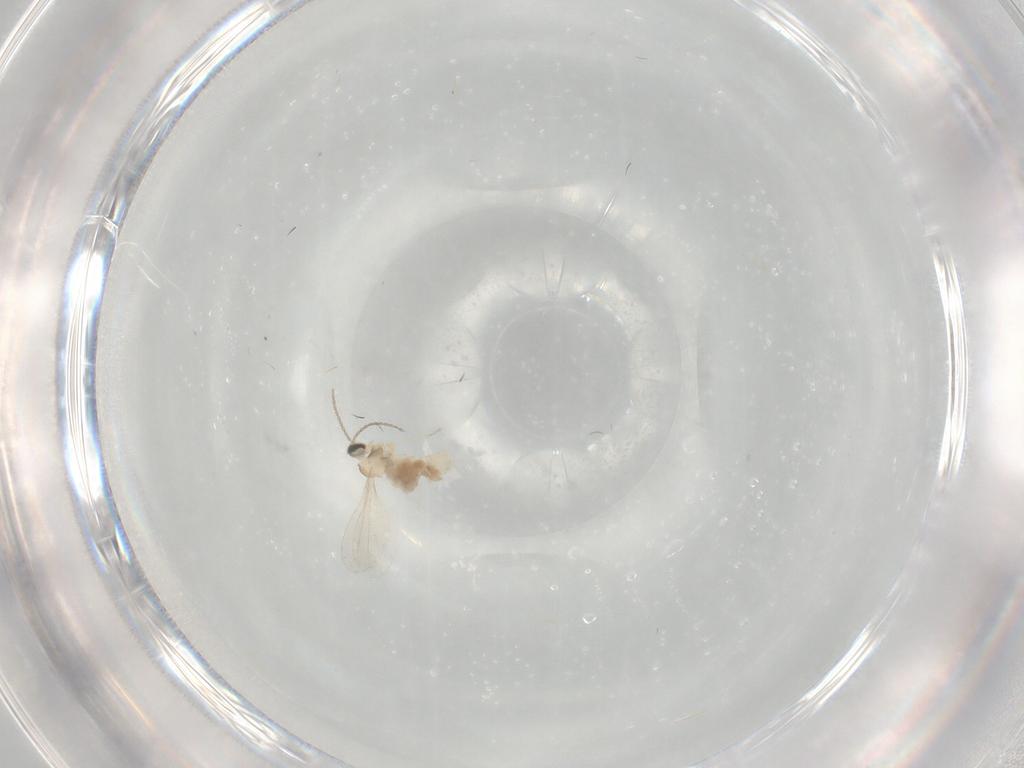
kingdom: Animalia
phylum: Arthropoda
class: Insecta
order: Diptera
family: Cecidomyiidae
